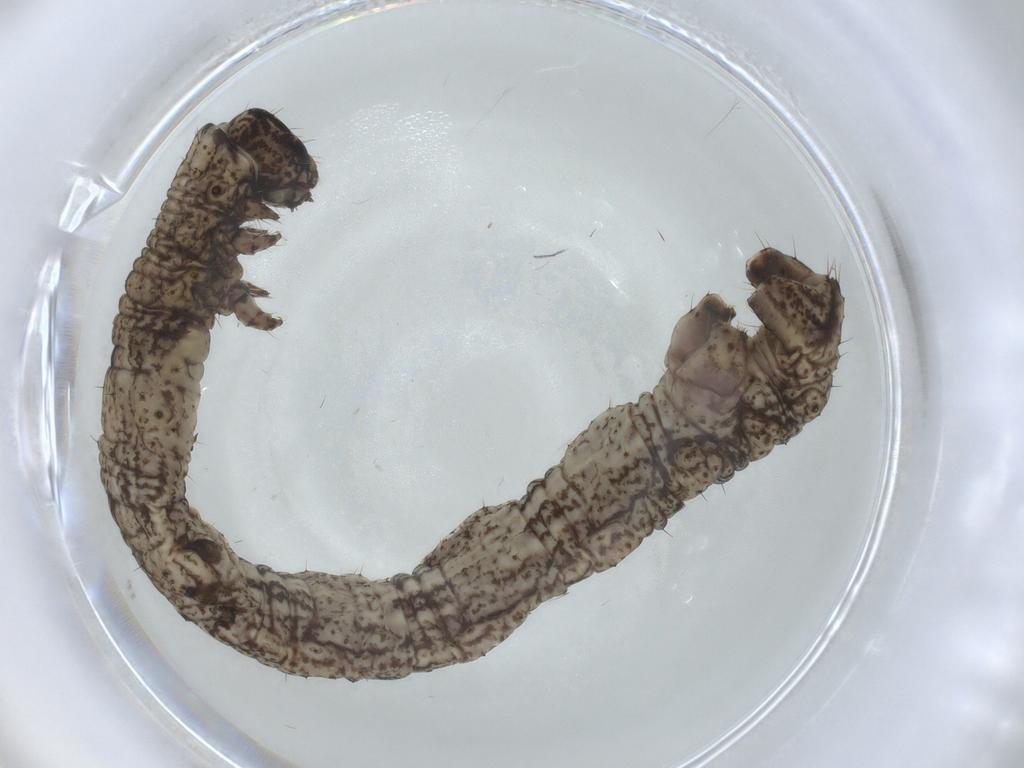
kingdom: Animalia
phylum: Arthropoda
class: Insecta
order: Lepidoptera
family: Geometridae
